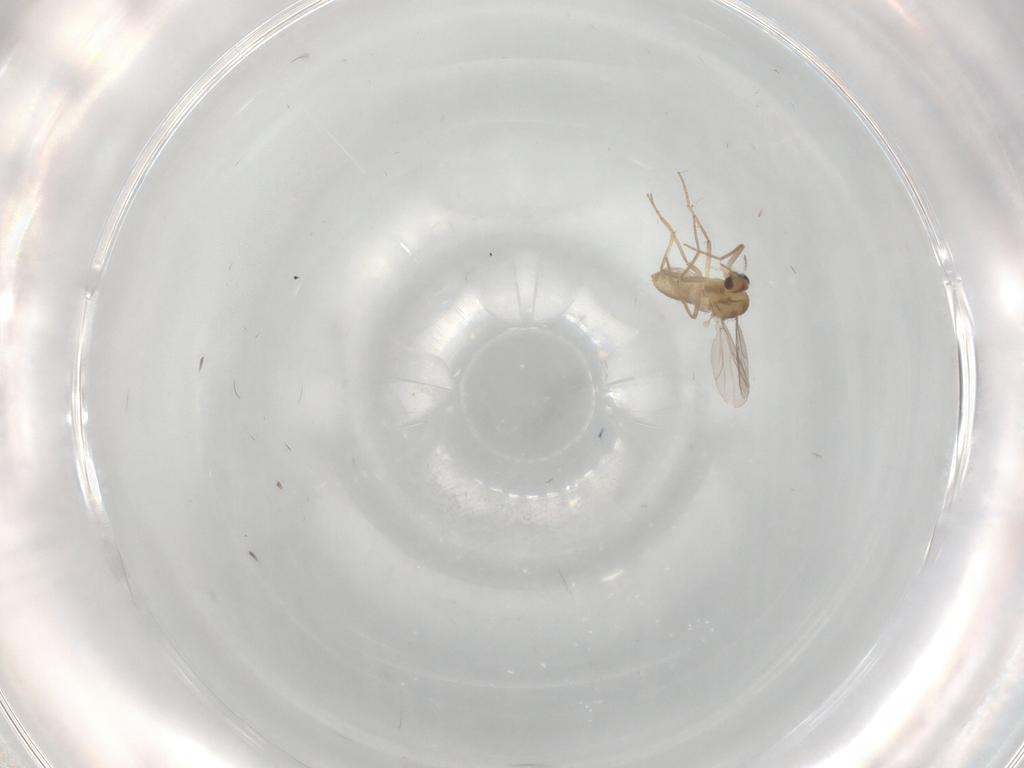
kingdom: Animalia
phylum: Arthropoda
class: Insecta
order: Diptera
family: Chironomidae
